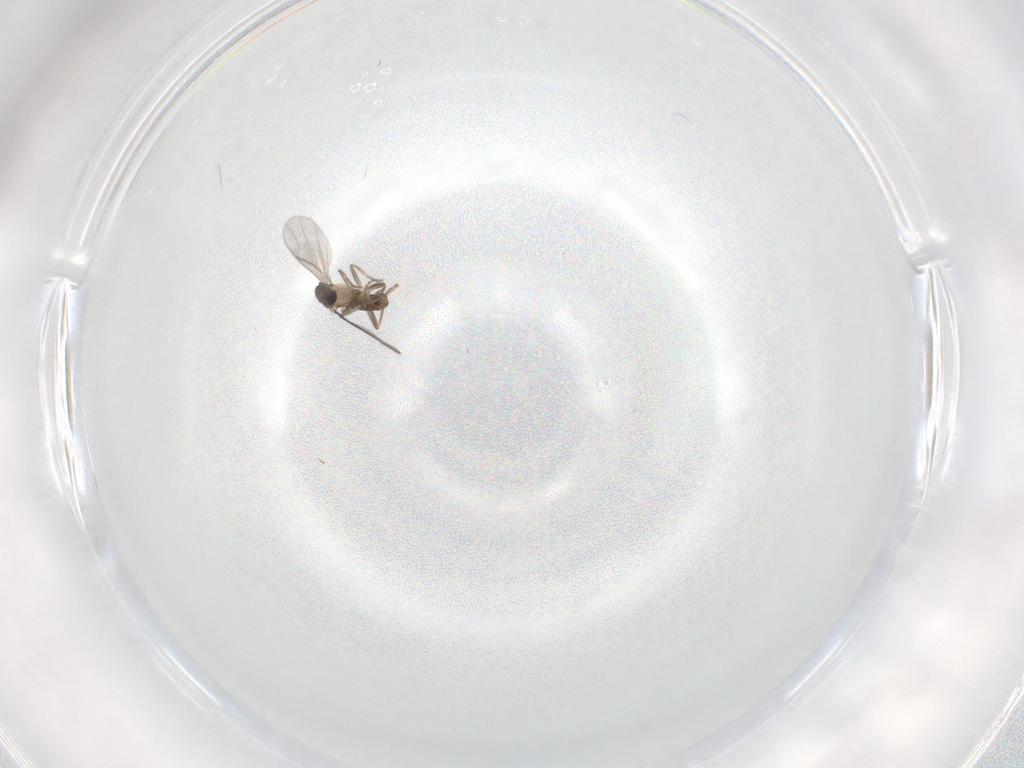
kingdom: Animalia
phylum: Arthropoda
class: Insecta
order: Diptera
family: Phoridae
